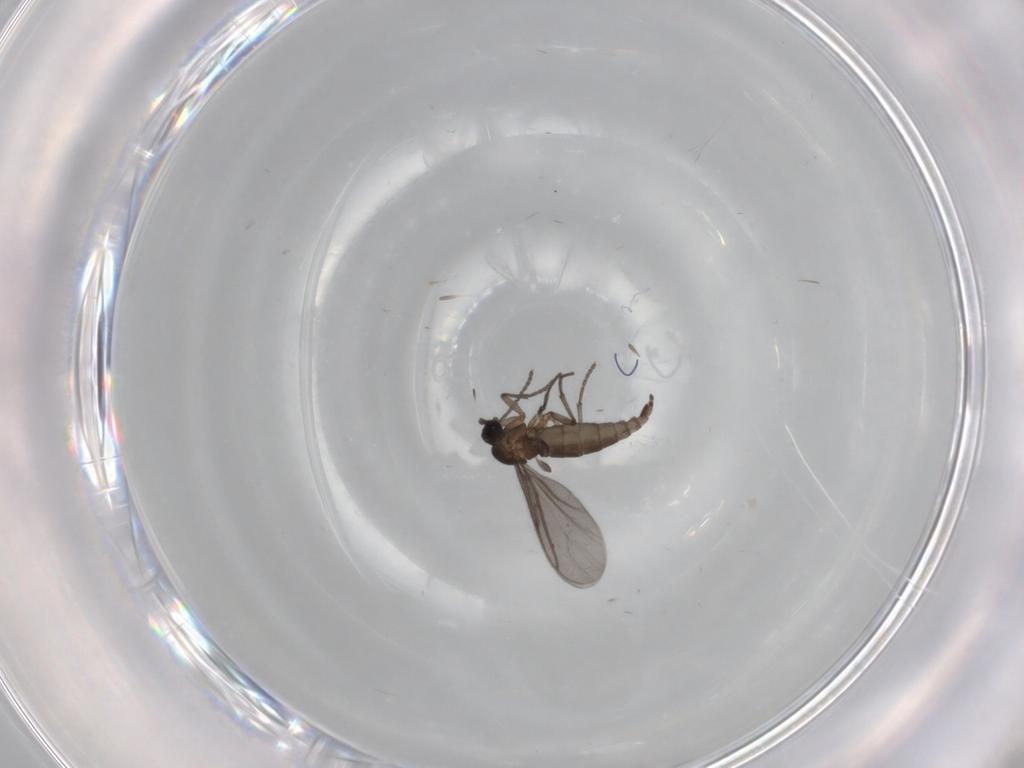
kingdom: Animalia
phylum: Arthropoda
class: Insecta
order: Diptera
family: Sciaridae
